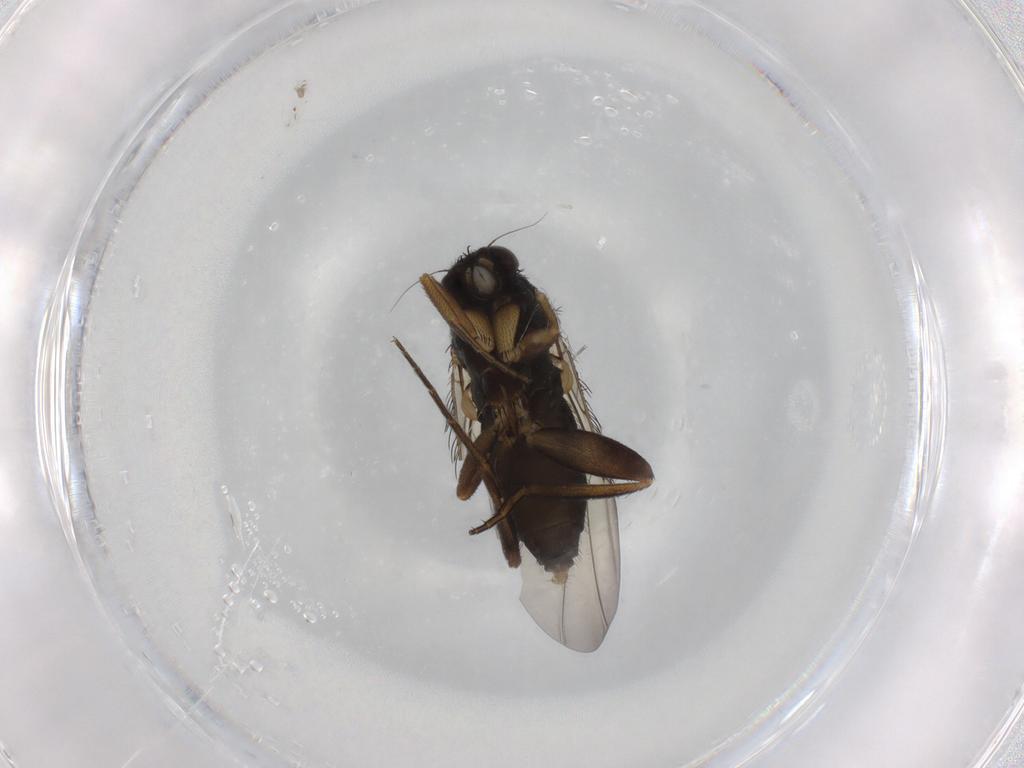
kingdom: Animalia
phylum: Arthropoda
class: Insecta
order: Diptera
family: Phoridae
